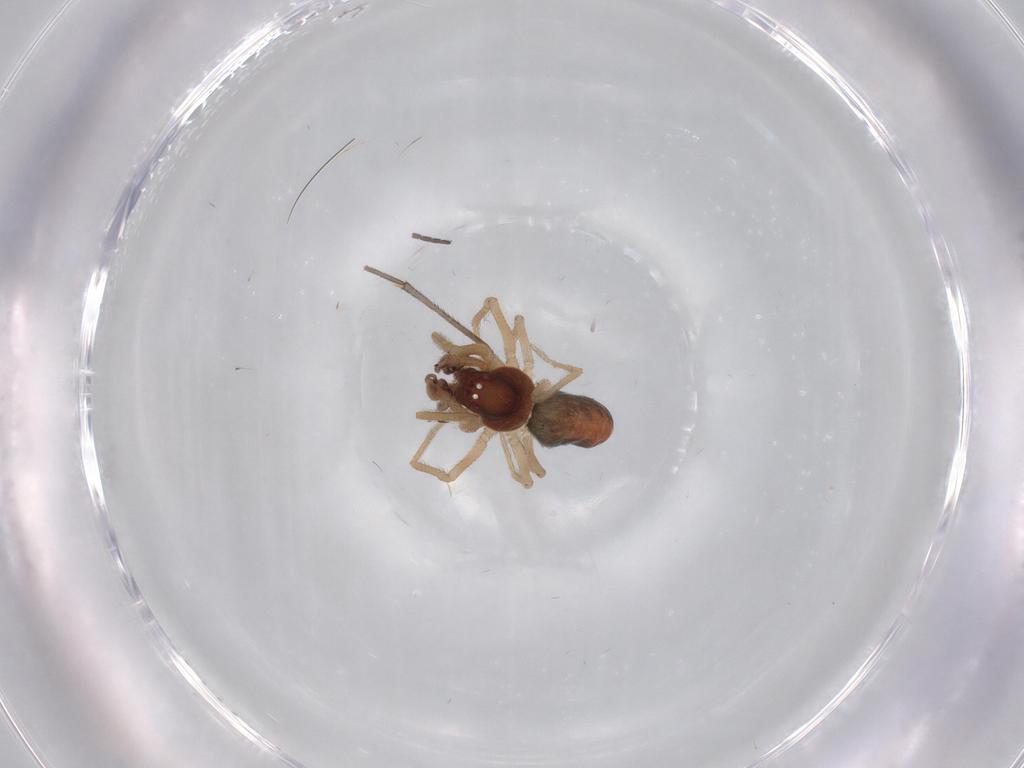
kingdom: Animalia
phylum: Arthropoda
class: Arachnida
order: Araneae
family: Dictynidae
